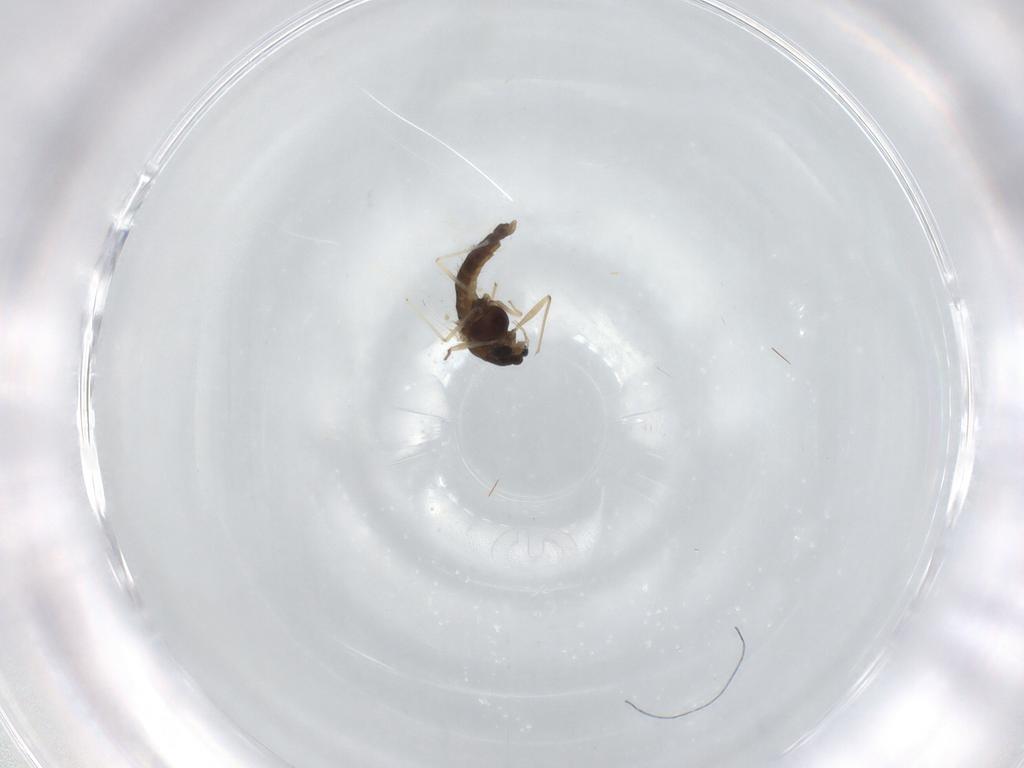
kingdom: Animalia
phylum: Arthropoda
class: Insecta
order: Diptera
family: Chironomidae
